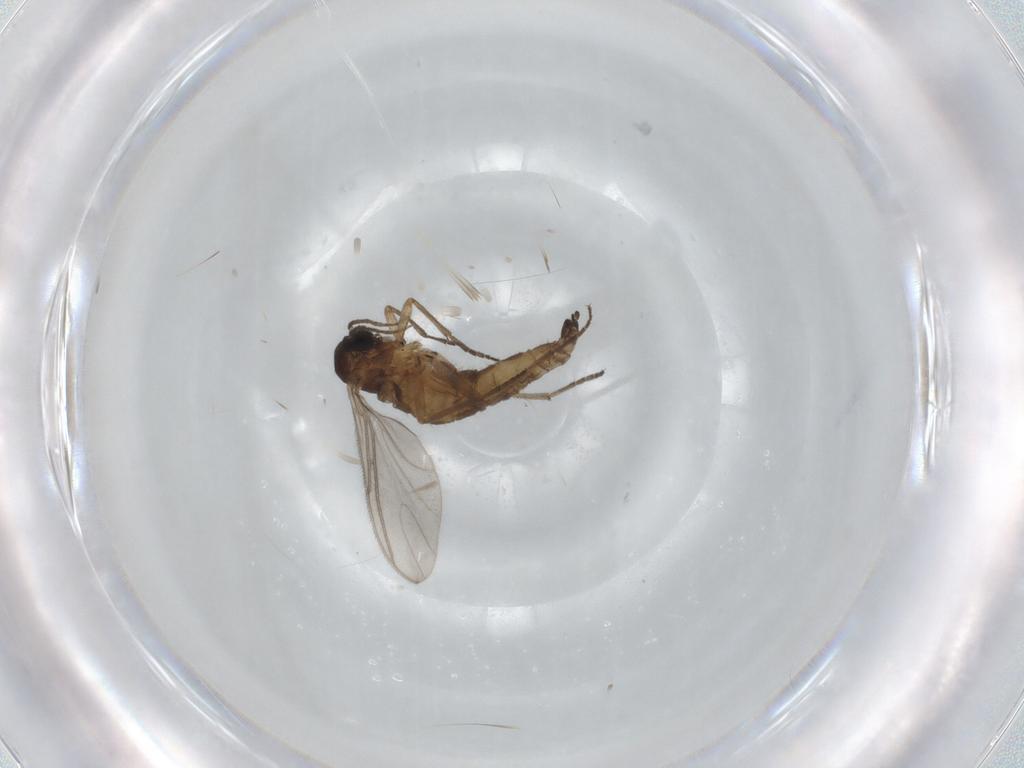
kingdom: Animalia
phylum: Arthropoda
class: Insecta
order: Diptera
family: Sciaridae
